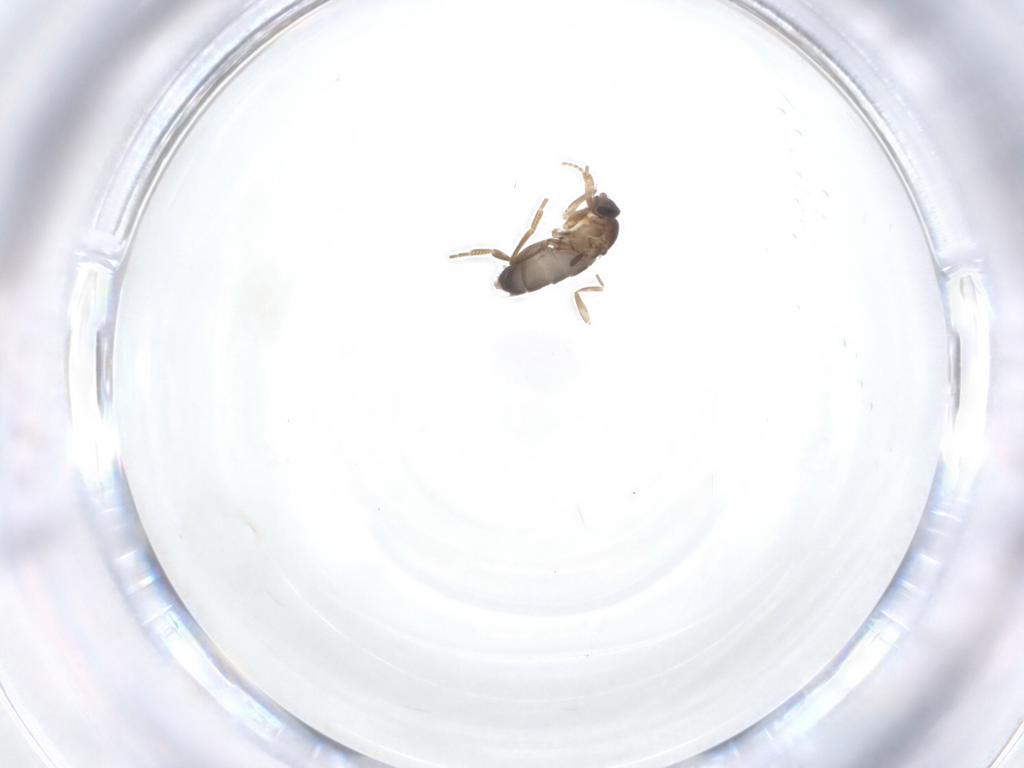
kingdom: Animalia
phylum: Arthropoda
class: Insecta
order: Diptera
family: Phoridae
